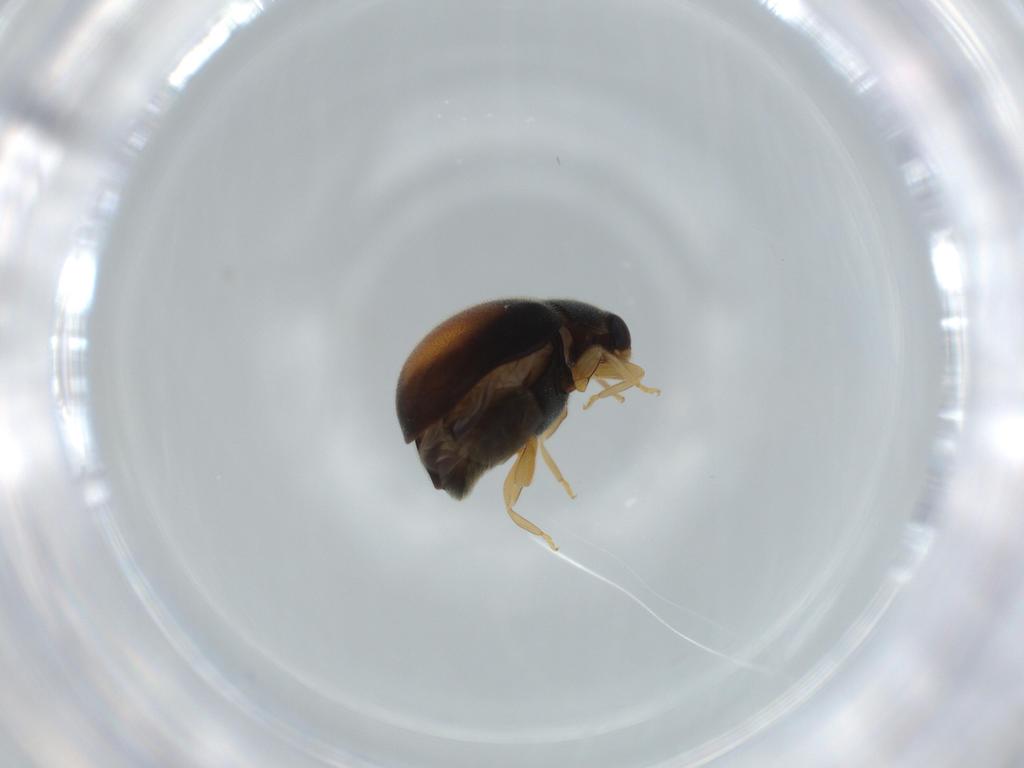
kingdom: Animalia
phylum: Arthropoda
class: Insecta
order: Coleoptera
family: Coccinellidae
